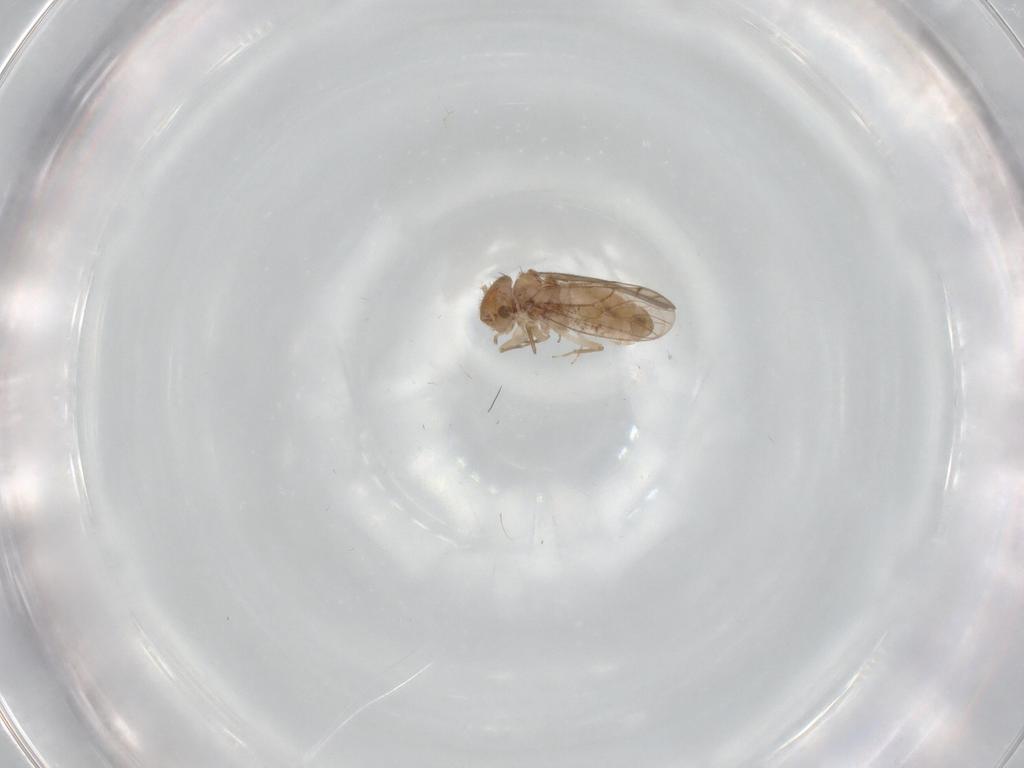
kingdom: Animalia
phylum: Arthropoda
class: Insecta
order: Psocodea
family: Ectopsocidae
